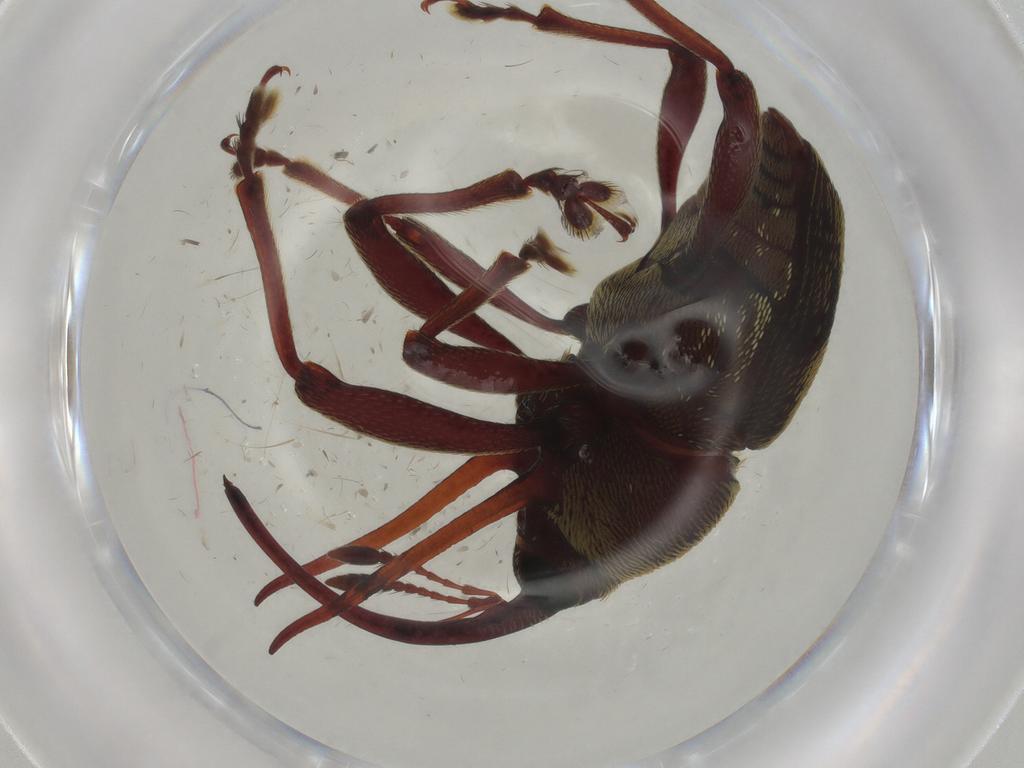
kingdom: Animalia
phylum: Arthropoda
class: Insecta
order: Coleoptera
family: Curculionidae
